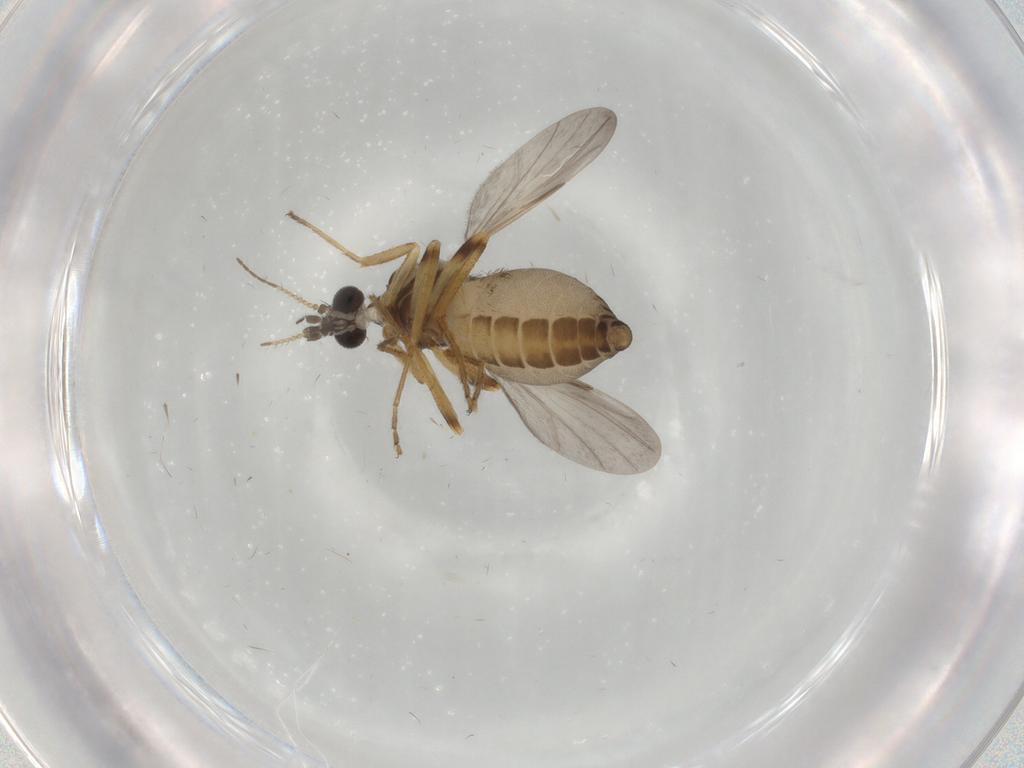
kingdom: Animalia
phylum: Arthropoda
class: Insecta
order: Diptera
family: Ceratopogonidae
